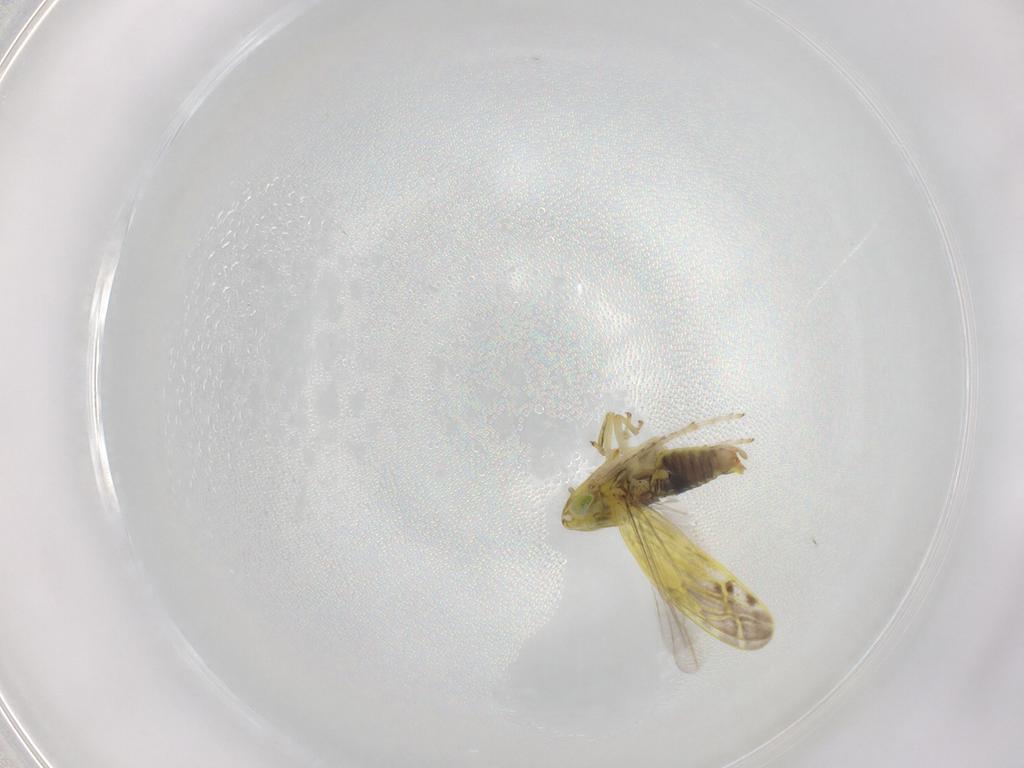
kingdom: Animalia
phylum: Arthropoda
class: Insecta
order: Hemiptera
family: Cicadellidae
